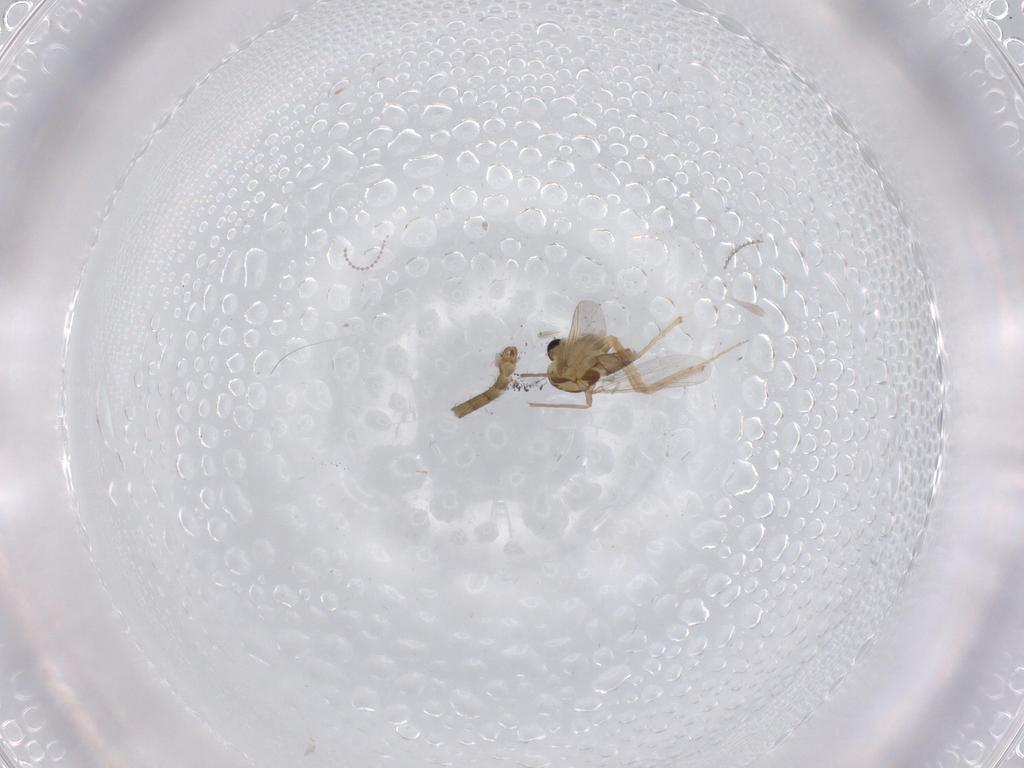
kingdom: Animalia
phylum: Arthropoda
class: Insecta
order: Diptera
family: Chironomidae
